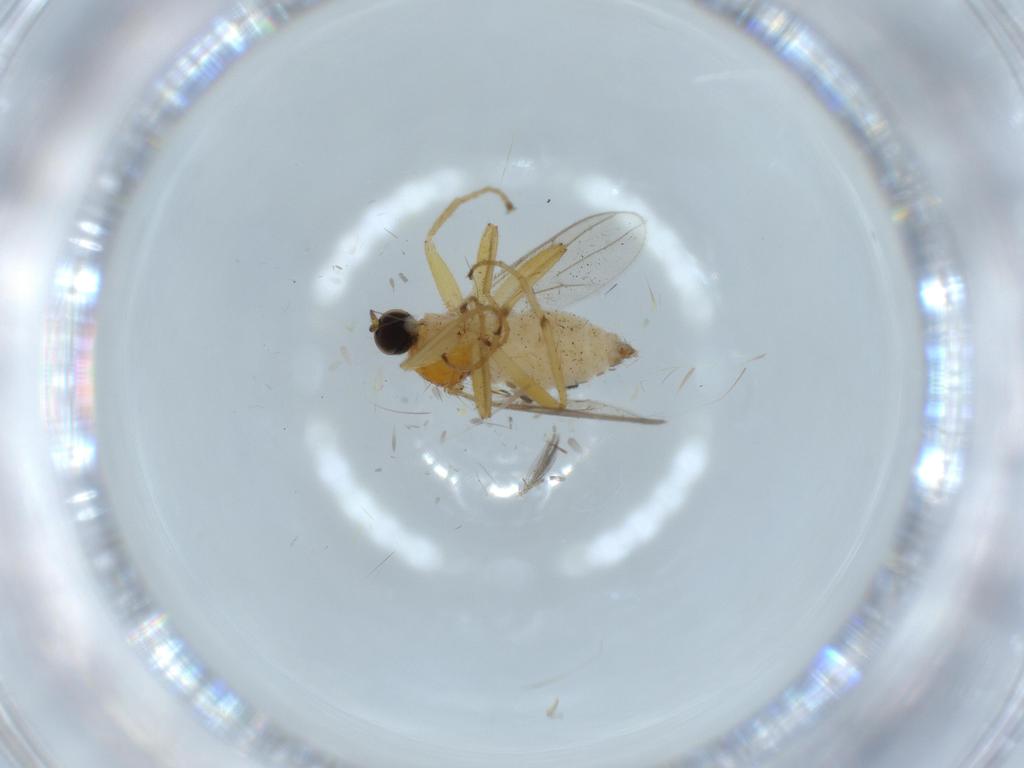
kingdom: Animalia
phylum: Arthropoda
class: Insecta
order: Diptera
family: Hybotidae
